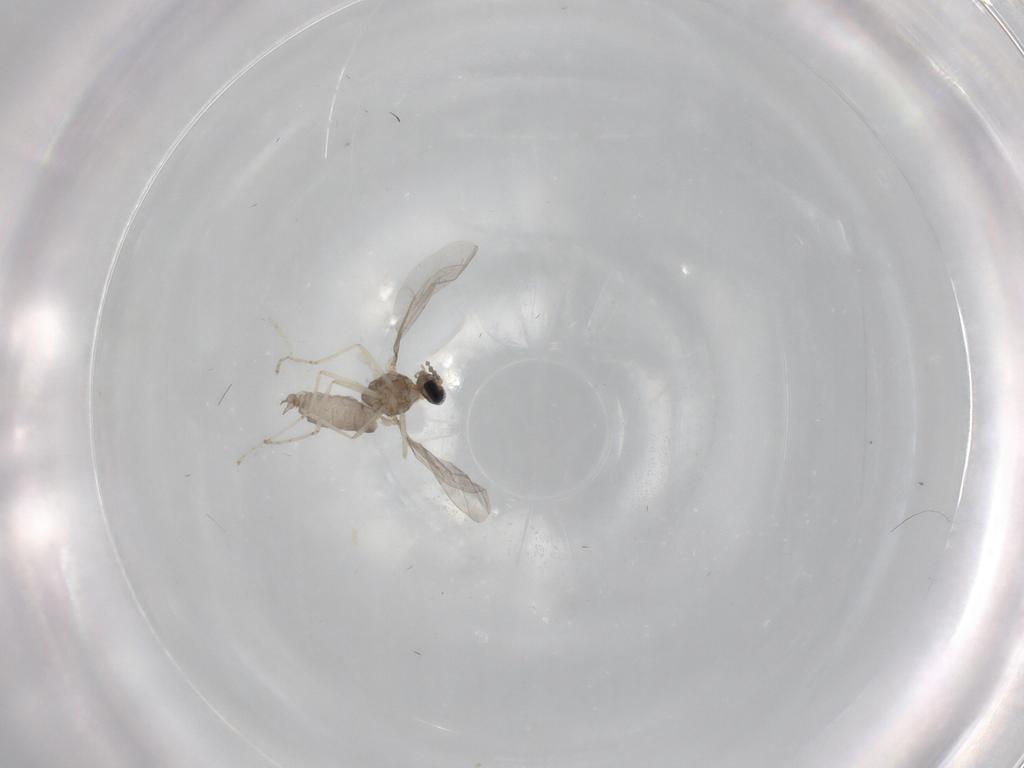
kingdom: Animalia
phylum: Arthropoda
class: Insecta
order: Diptera
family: Cecidomyiidae
